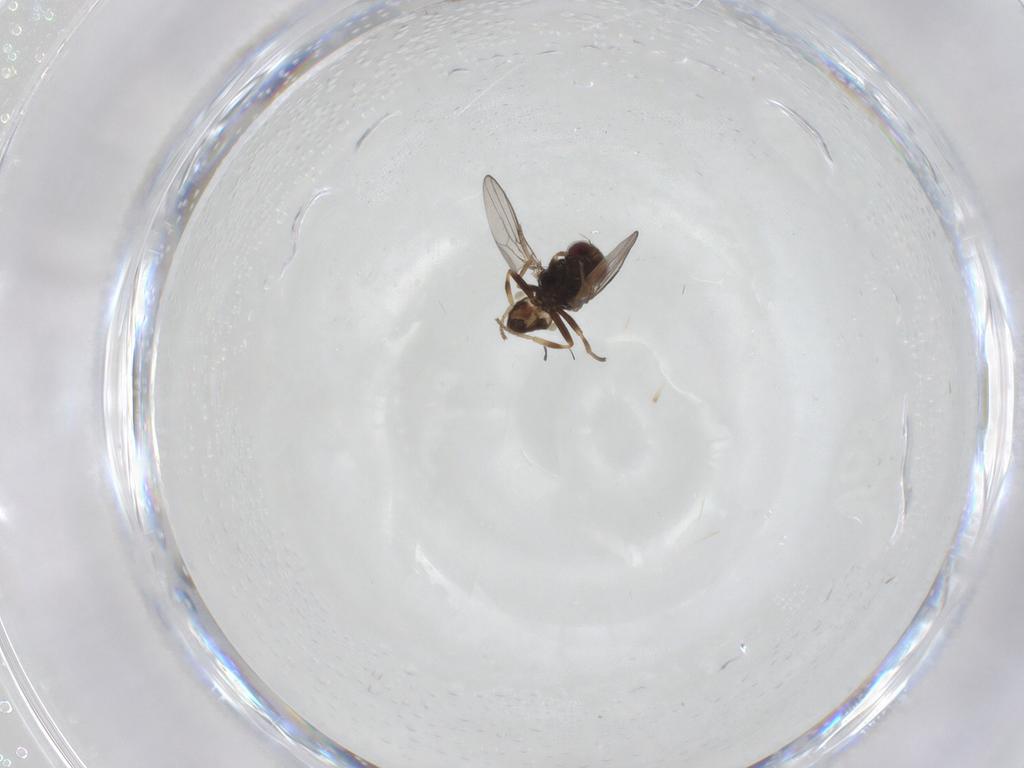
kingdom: Animalia
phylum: Arthropoda
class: Insecta
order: Diptera
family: Chloropidae
